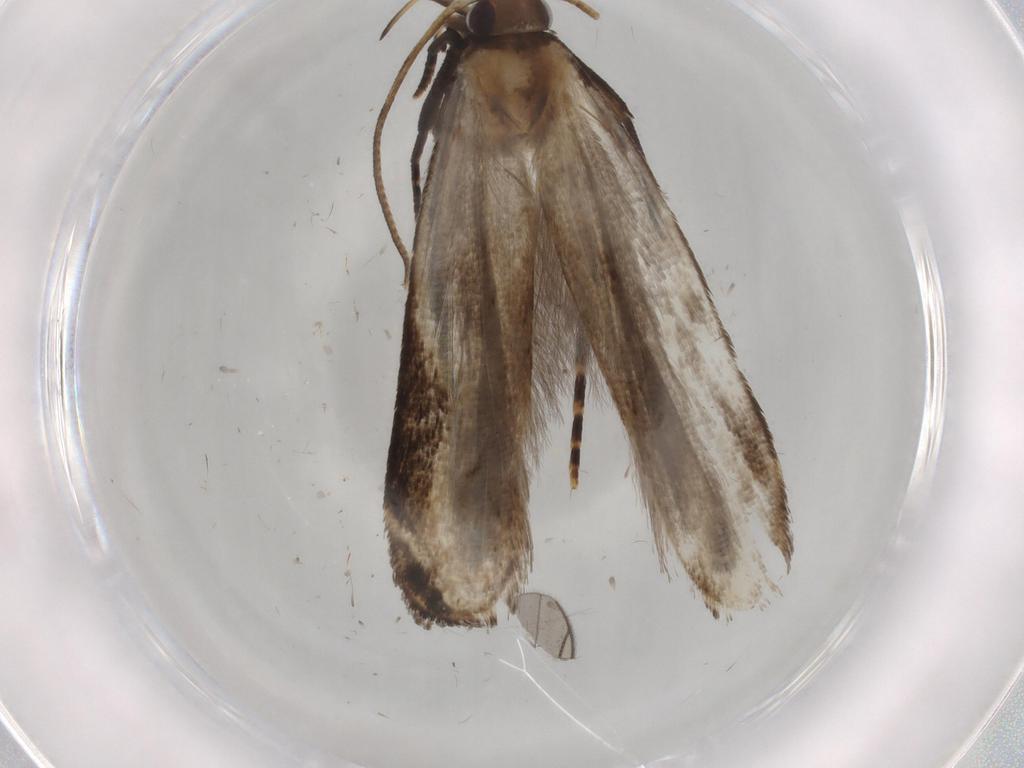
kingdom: Animalia
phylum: Arthropoda
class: Insecta
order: Lepidoptera
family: Gelechiidae
